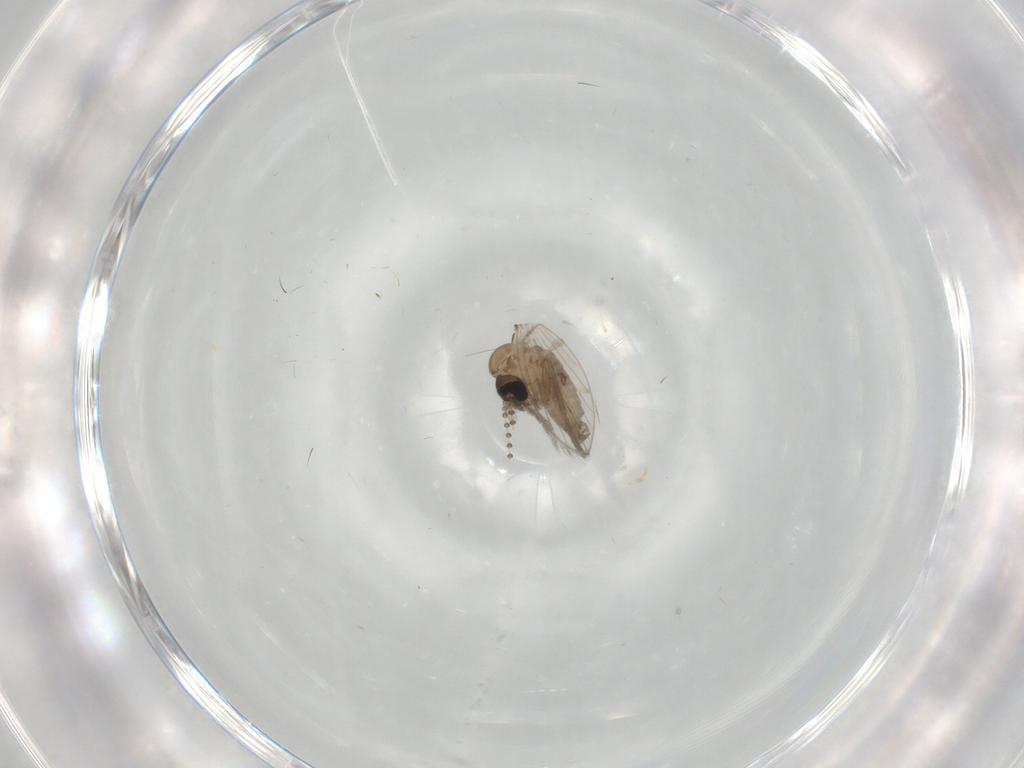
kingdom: Animalia
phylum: Arthropoda
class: Insecta
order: Diptera
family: Psychodidae
